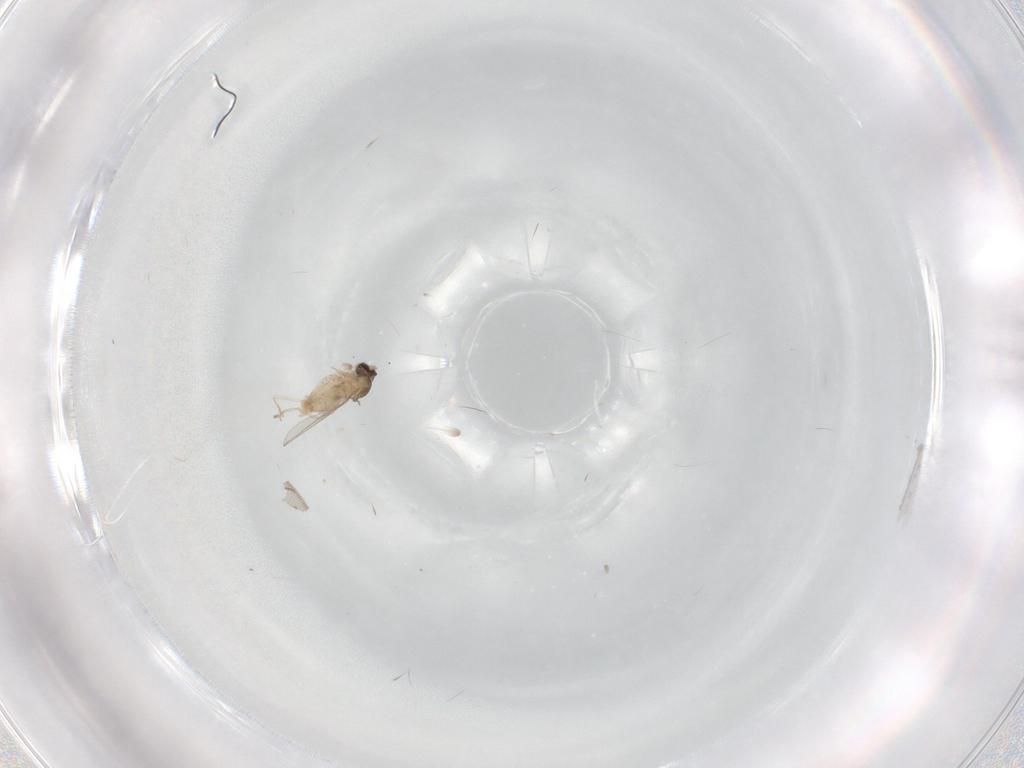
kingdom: Animalia
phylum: Arthropoda
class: Insecta
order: Diptera
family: Cecidomyiidae
